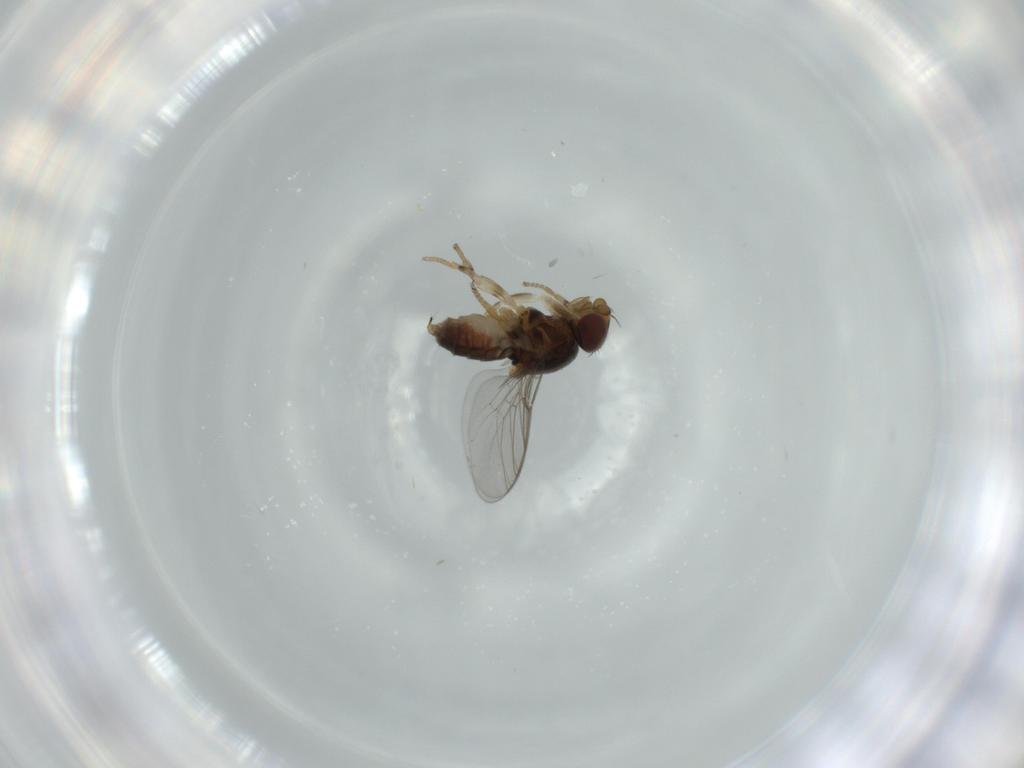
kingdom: Animalia
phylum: Arthropoda
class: Insecta
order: Diptera
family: Chloropidae
